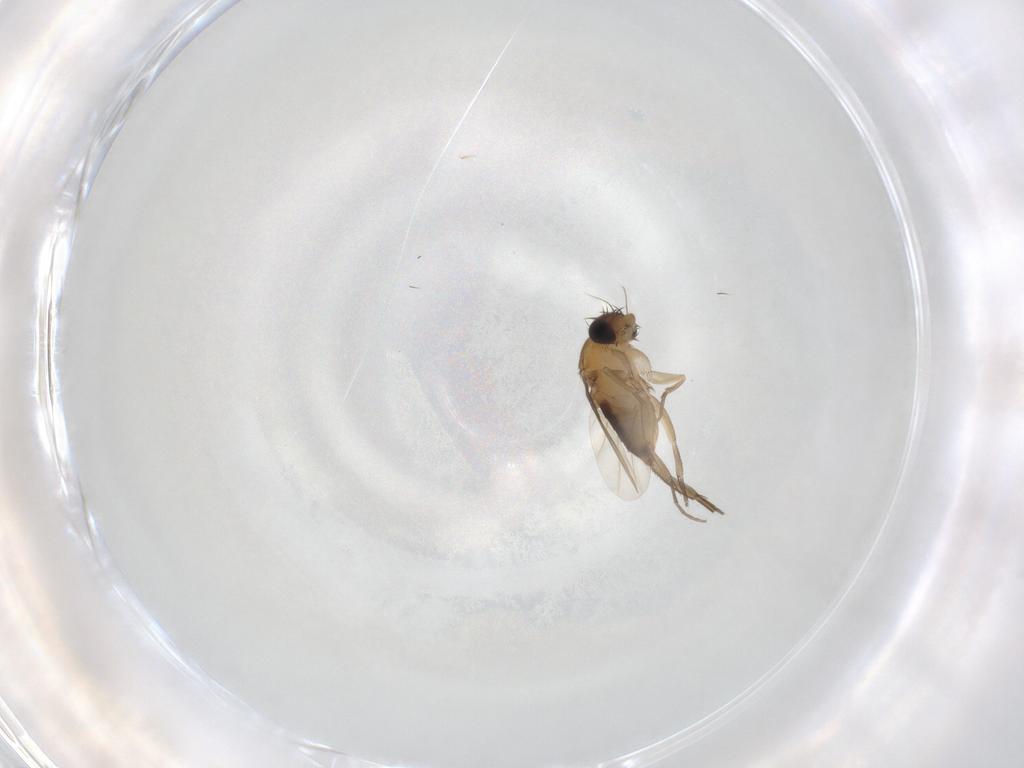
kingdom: Animalia
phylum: Arthropoda
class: Insecta
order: Diptera
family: Phoridae
